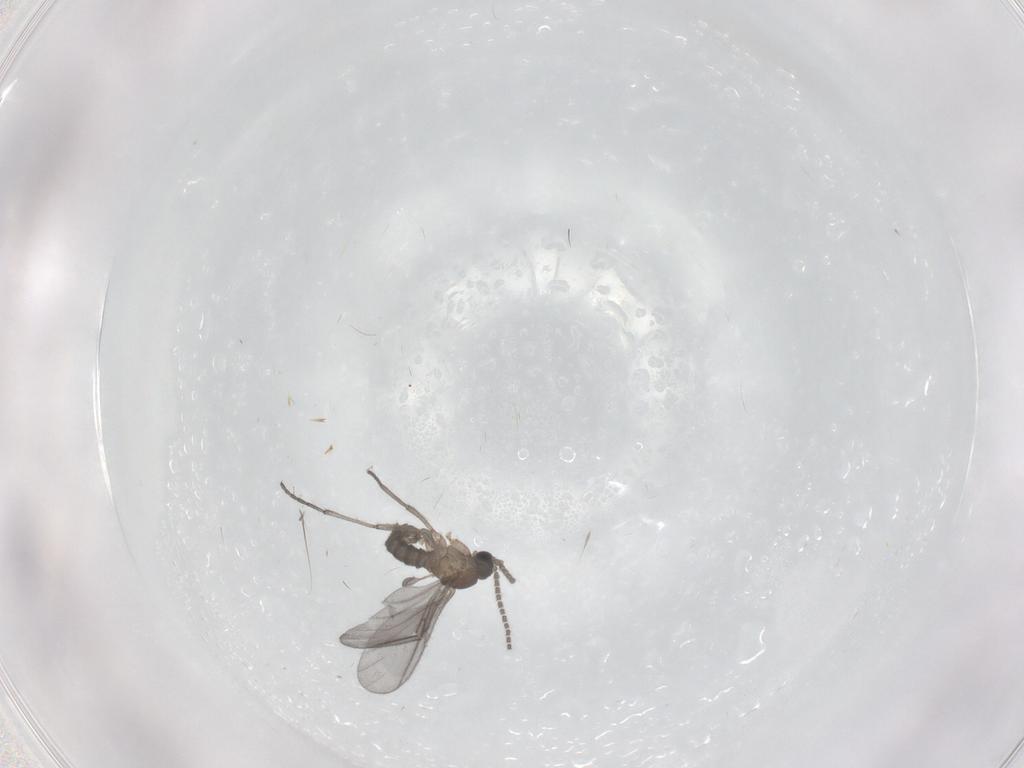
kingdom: Animalia
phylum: Arthropoda
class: Insecta
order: Diptera
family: Sciaridae
